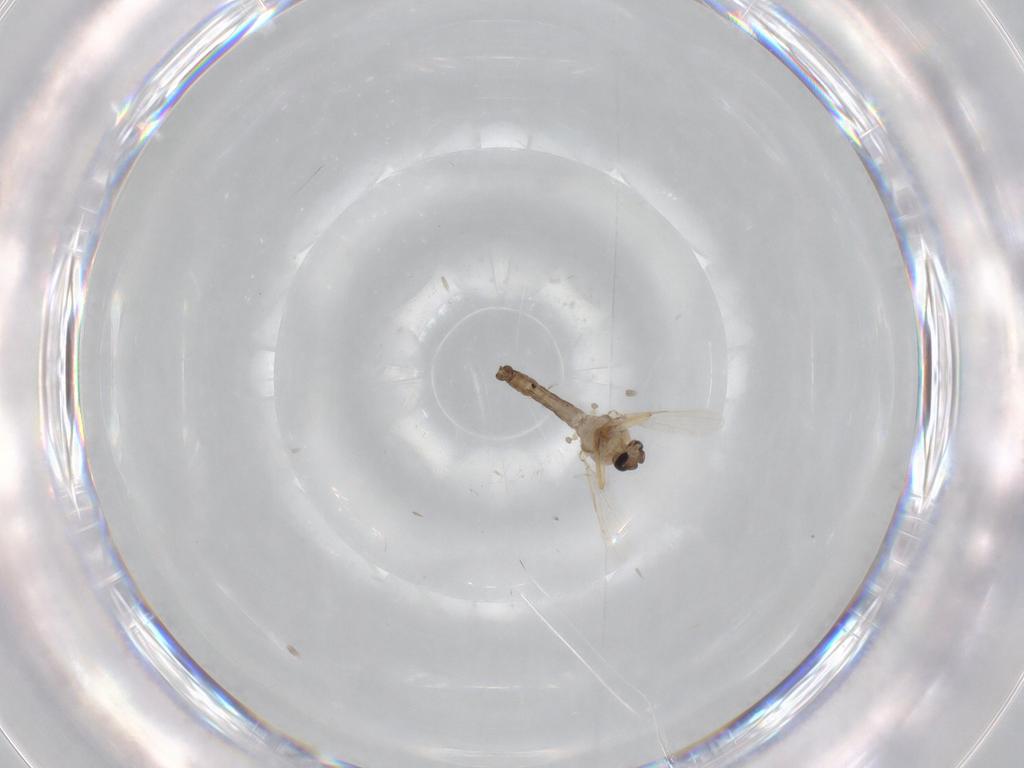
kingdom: Animalia
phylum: Arthropoda
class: Insecta
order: Diptera
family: Ceratopogonidae
